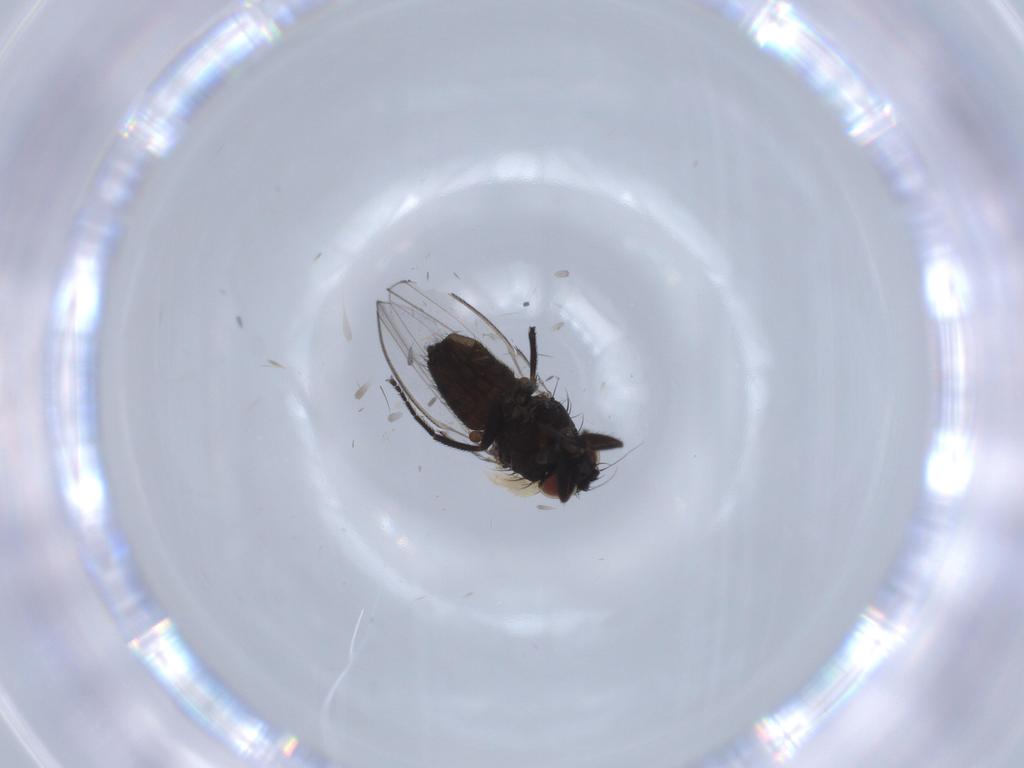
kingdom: Animalia
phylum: Arthropoda
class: Insecta
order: Diptera
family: Milichiidae
